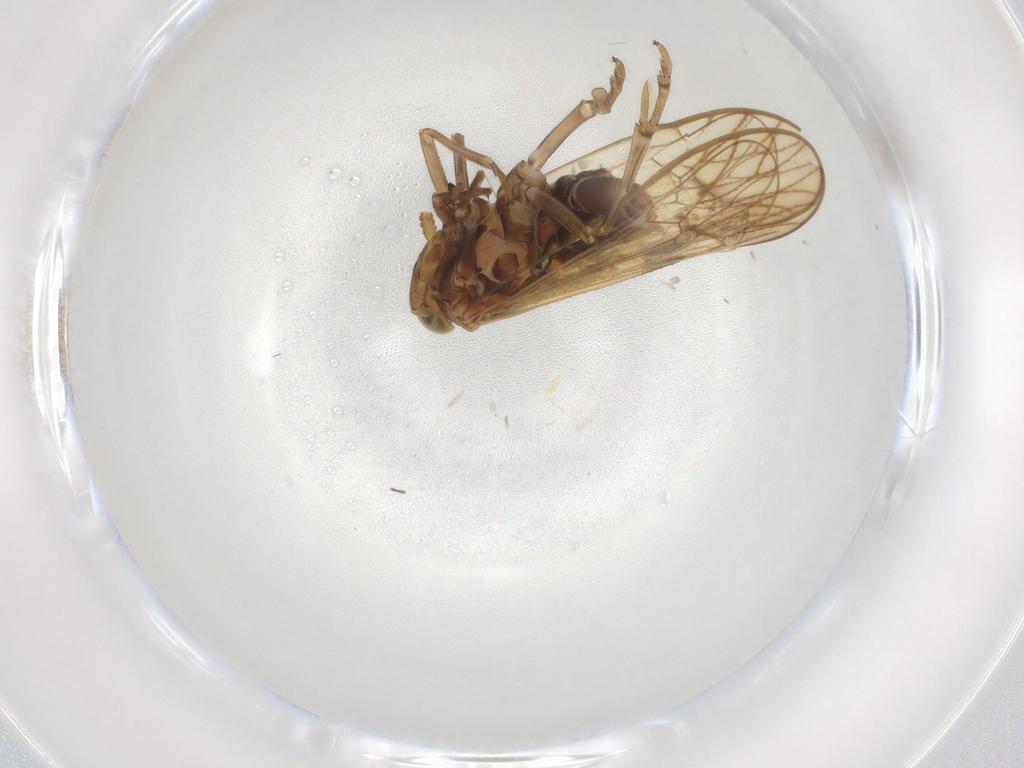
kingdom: Animalia
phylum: Arthropoda
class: Insecta
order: Hemiptera
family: Delphacidae
